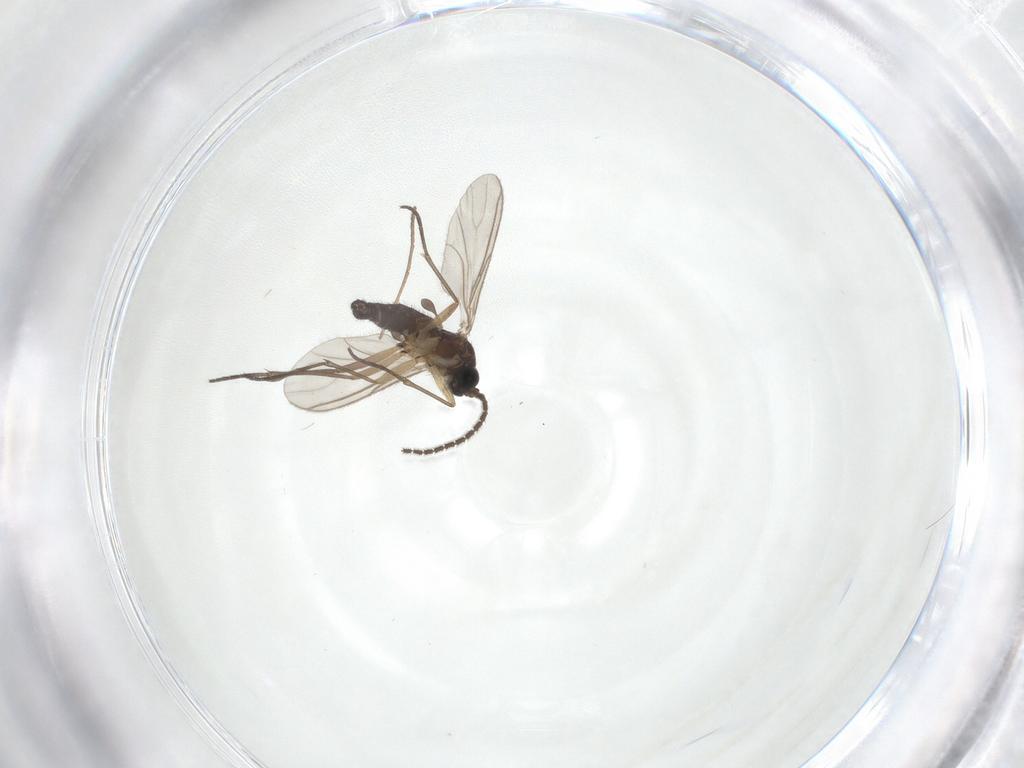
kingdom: Animalia
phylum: Arthropoda
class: Insecta
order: Diptera
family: Sciaridae
